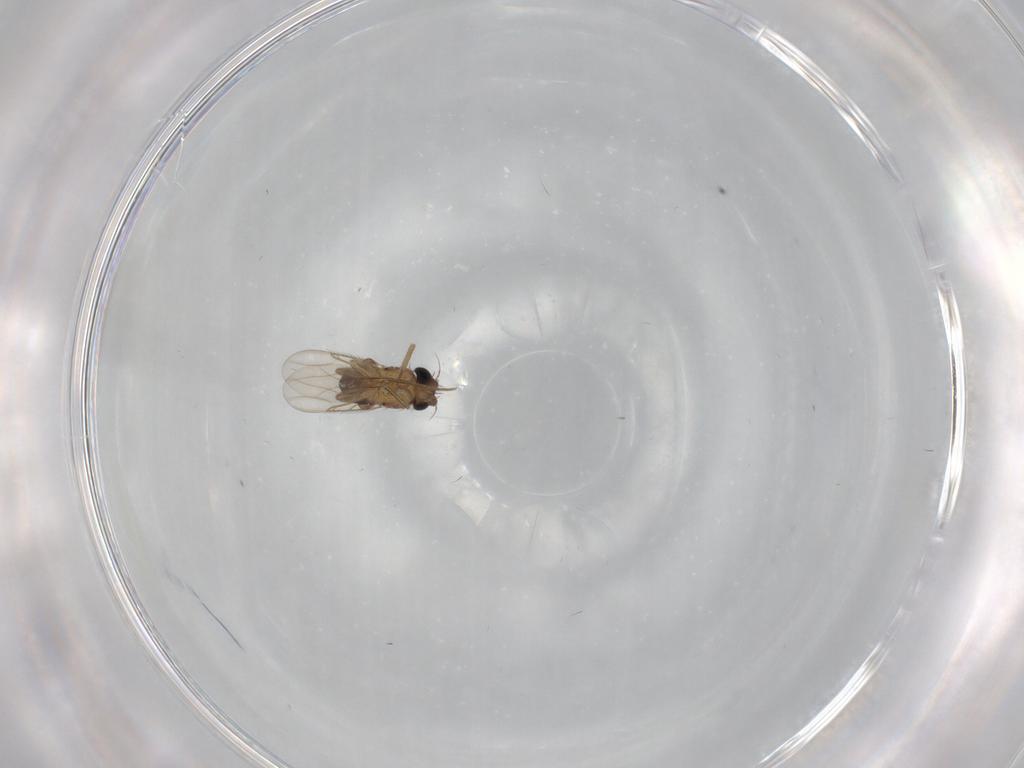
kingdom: Animalia
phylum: Arthropoda
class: Insecta
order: Diptera
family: Phoridae
